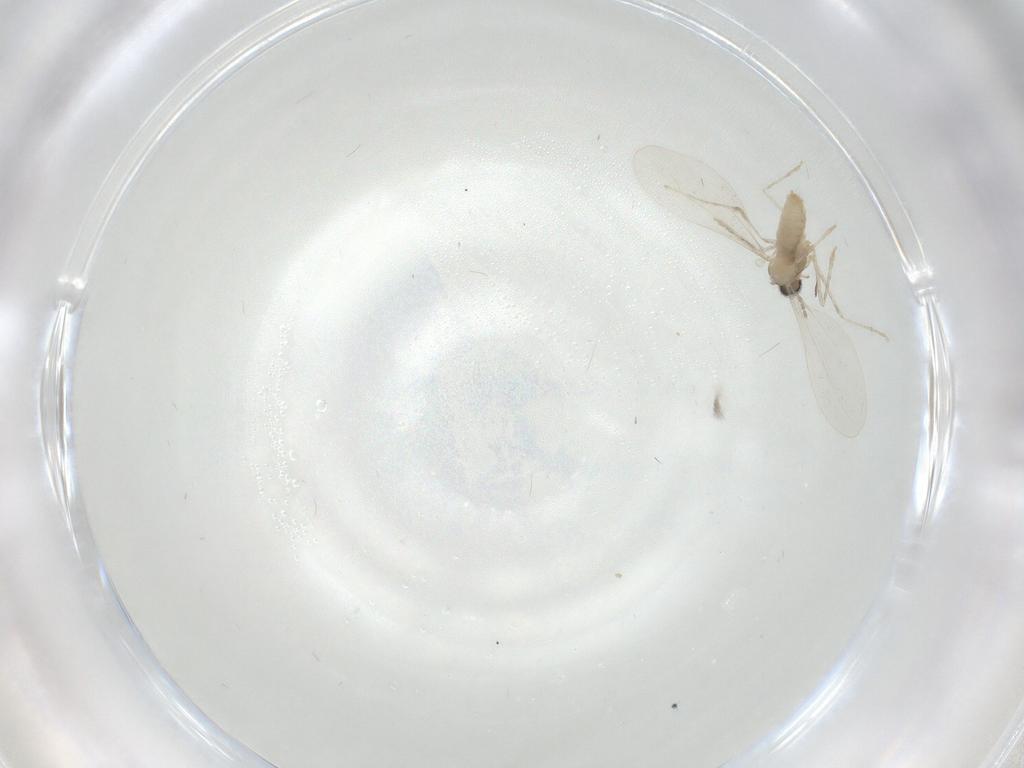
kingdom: Animalia
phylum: Arthropoda
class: Insecta
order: Diptera
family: Cecidomyiidae
